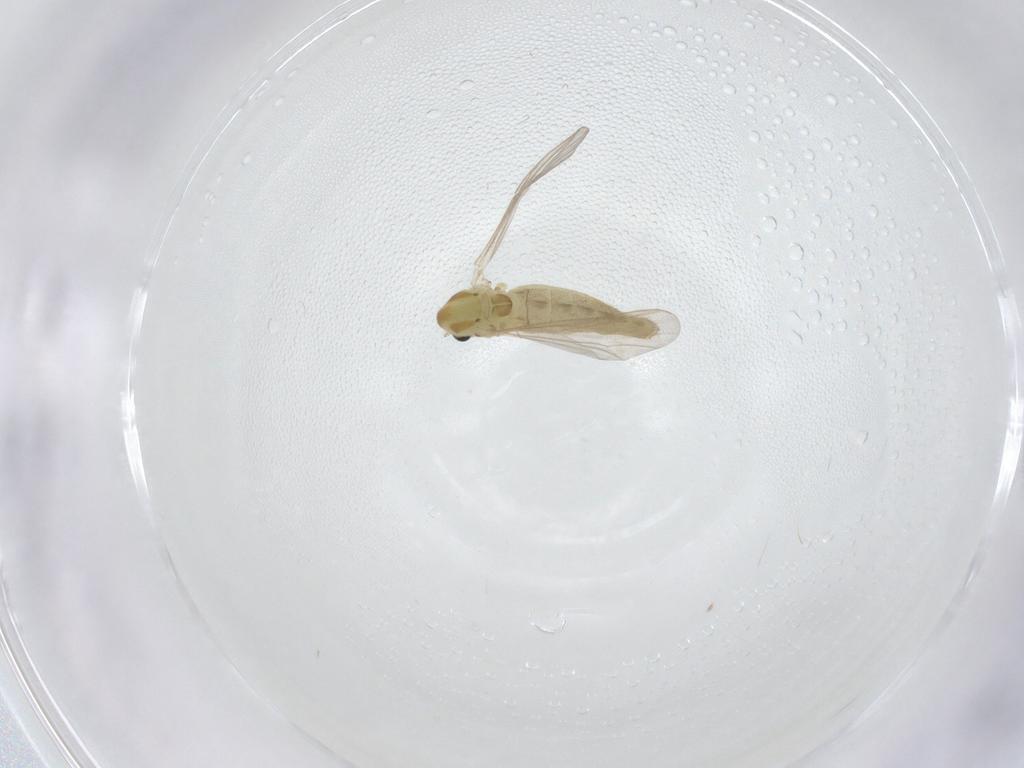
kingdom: Animalia
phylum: Arthropoda
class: Insecta
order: Diptera
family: Chironomidae
